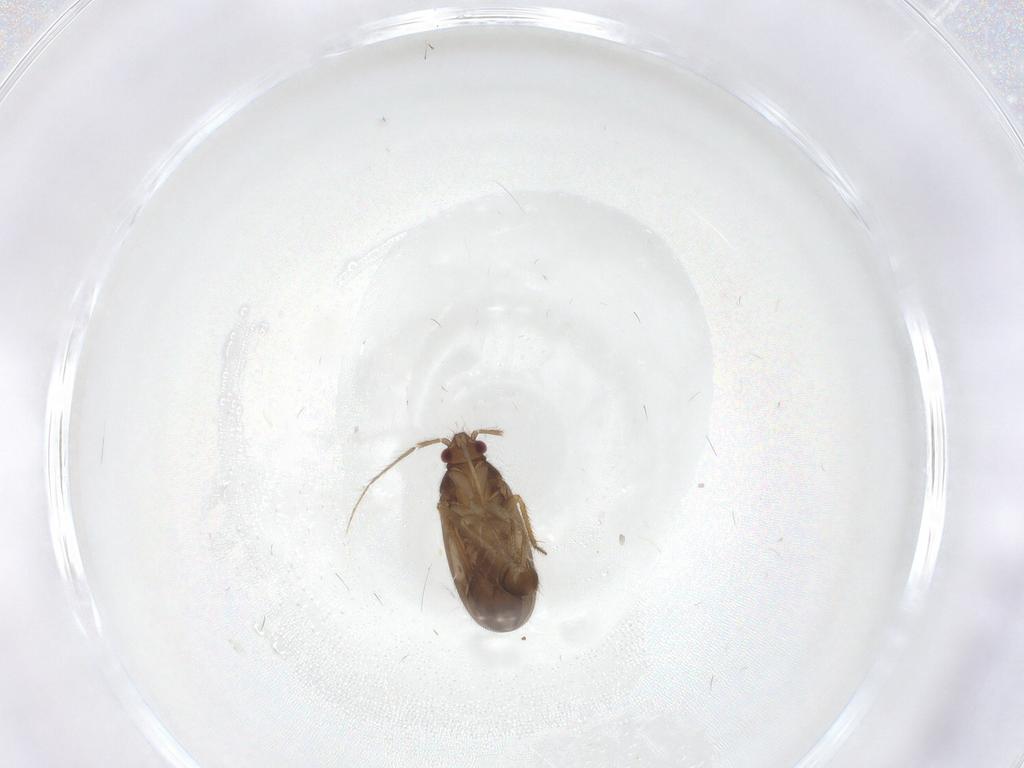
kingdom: Animalia
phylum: Arthropoda
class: Insecta
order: Hemiptera
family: Ceratocombidae
